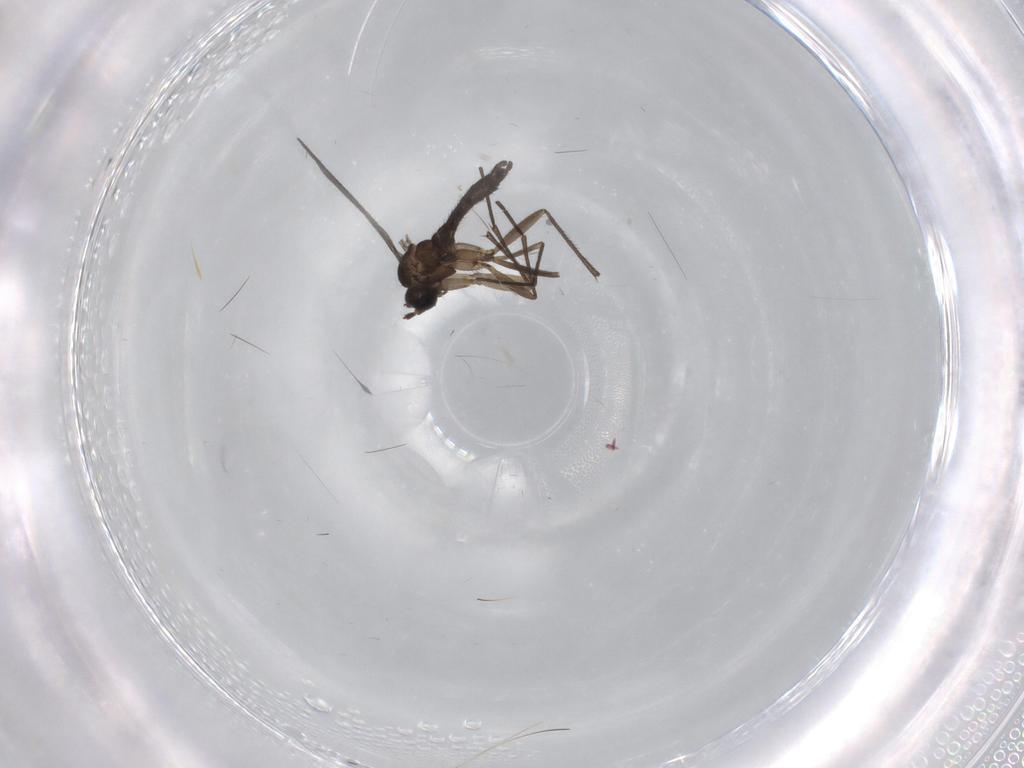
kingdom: Animalia
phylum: Arthropoda
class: Insecta
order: Diptera
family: Sciaridae
